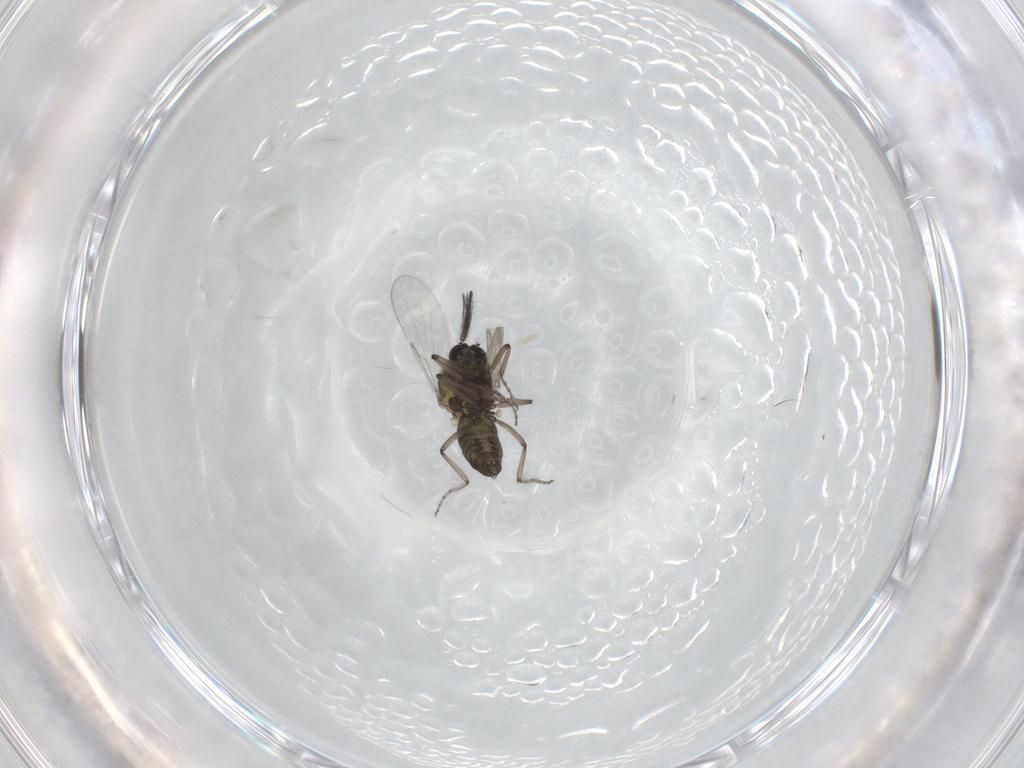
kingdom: Animalia
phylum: Arthropoda
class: Insecta
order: Diptera
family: Ceratopogonidae
